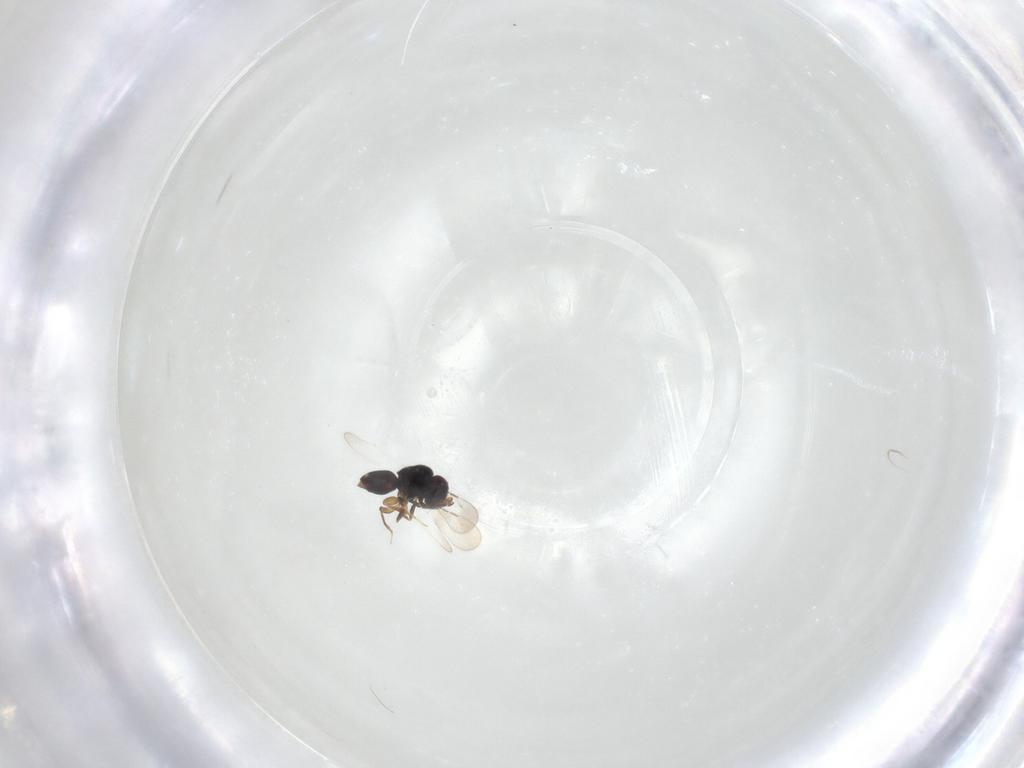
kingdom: Animalia
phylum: Arthropoda
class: Insecta
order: Hymenoptera
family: Ceraphronidae
